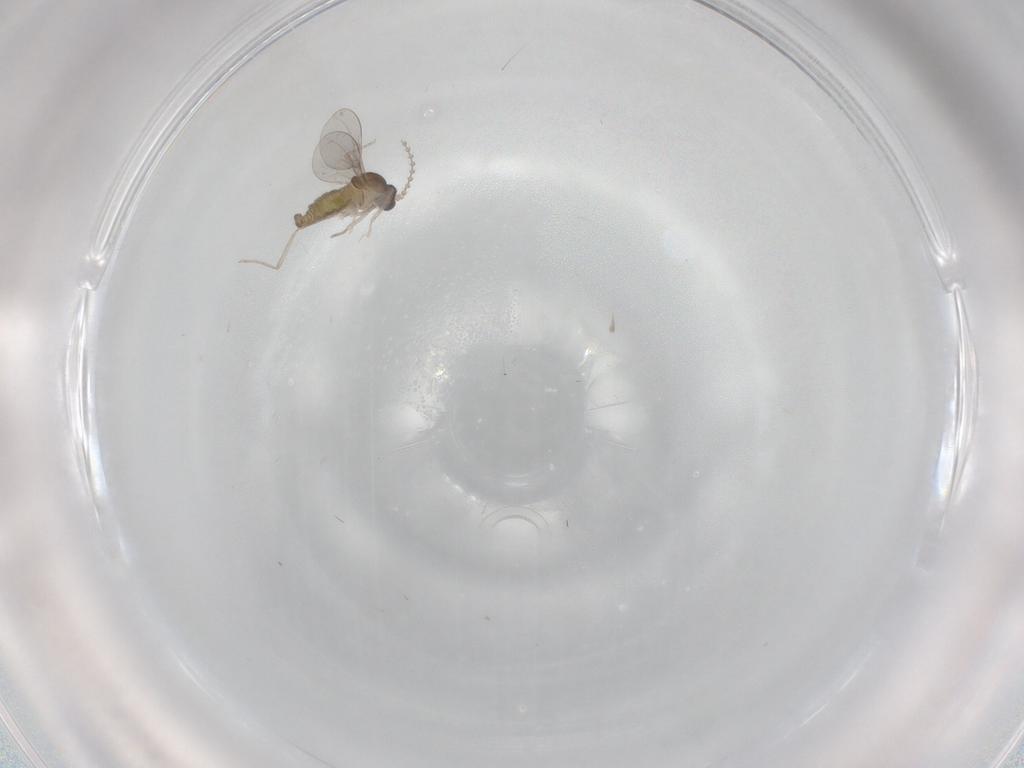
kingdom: Animalia
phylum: Arthropoda
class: Insecta
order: Diptera
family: Cecidomyiidae
